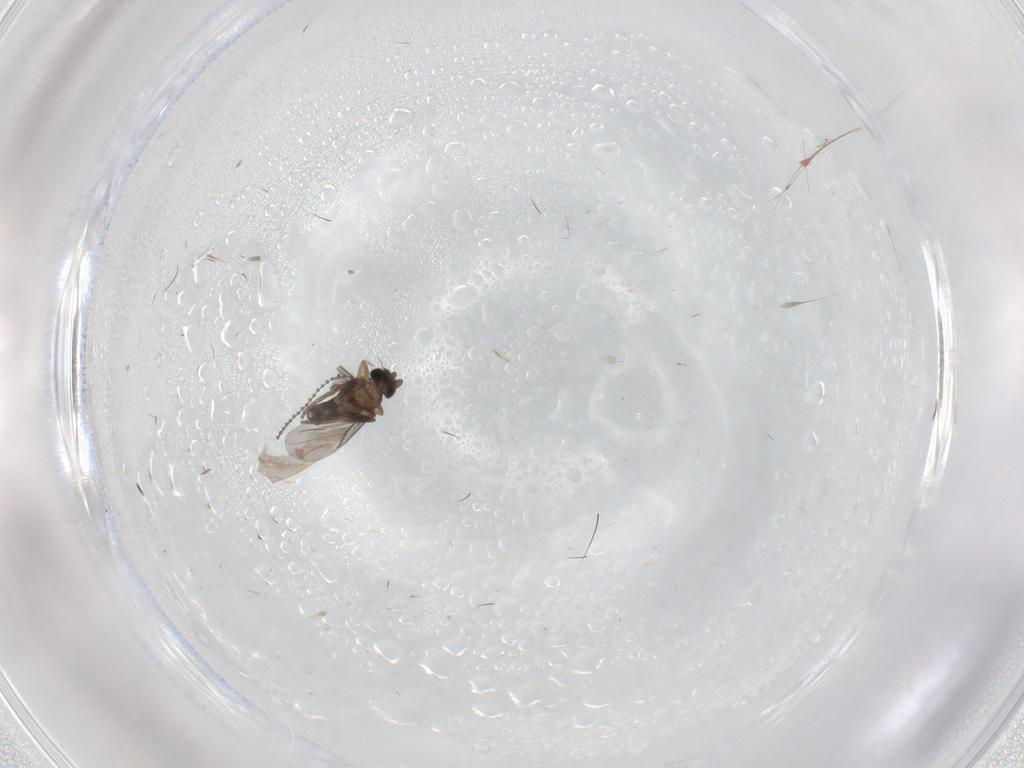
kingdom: Animalia
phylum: Arthropoda
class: Insecta
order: Diptera
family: Limoniidae
